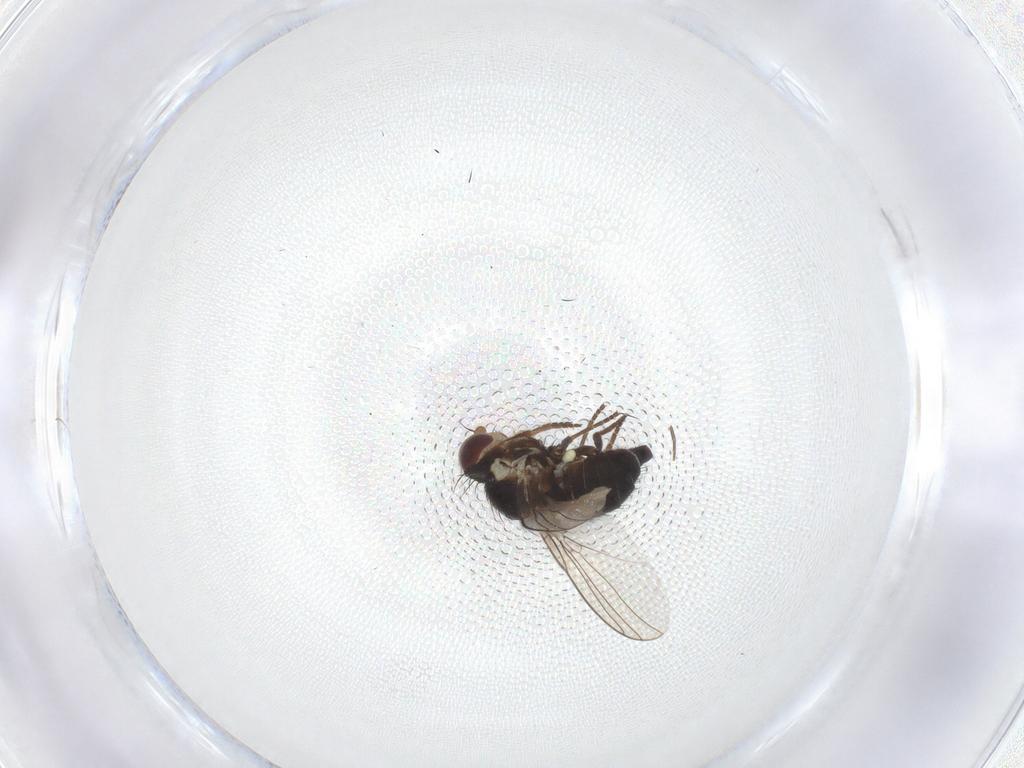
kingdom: Animalia
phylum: Arthropoda
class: Insecta
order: Diptera
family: Agromyzidae
